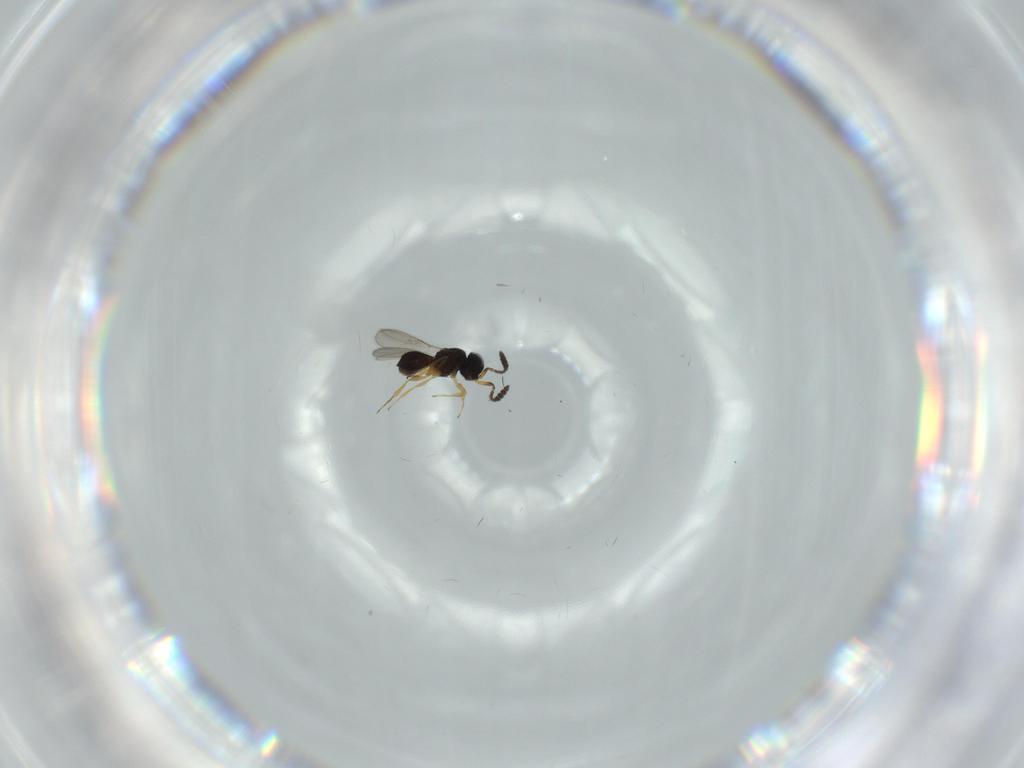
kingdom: Animalia
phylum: Arthropoda
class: Insecta
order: Hymenoptera
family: Scelionidae
